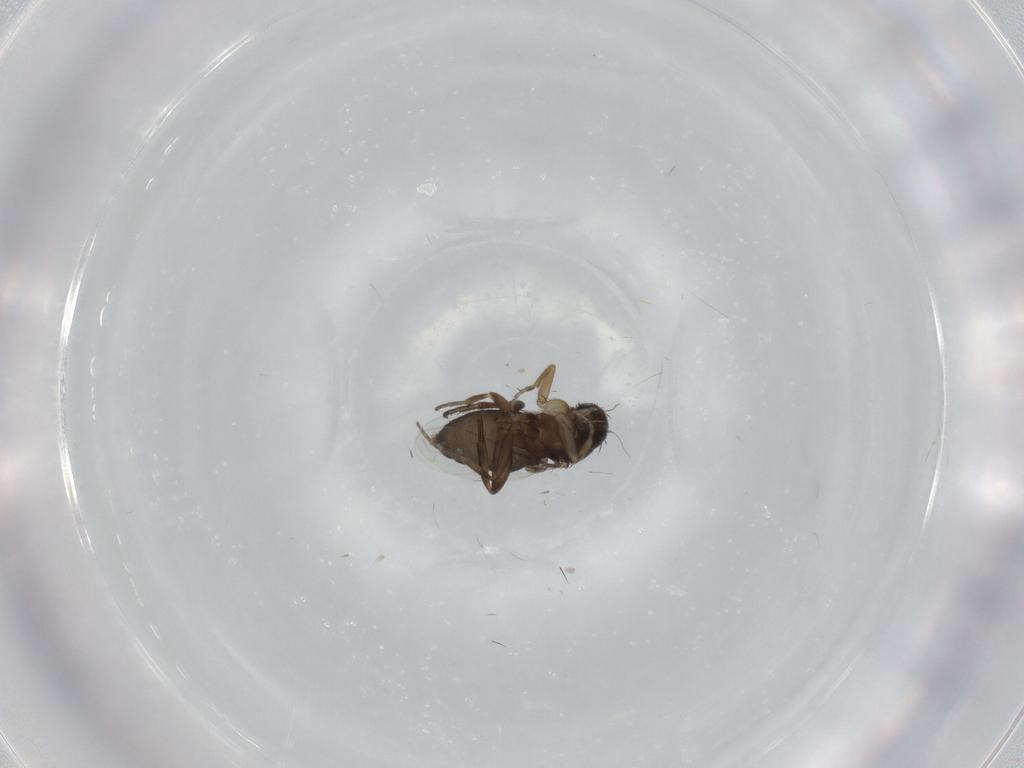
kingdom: Animalia
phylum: Arthropoda
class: Insecta
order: Diptera
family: Phoridae
